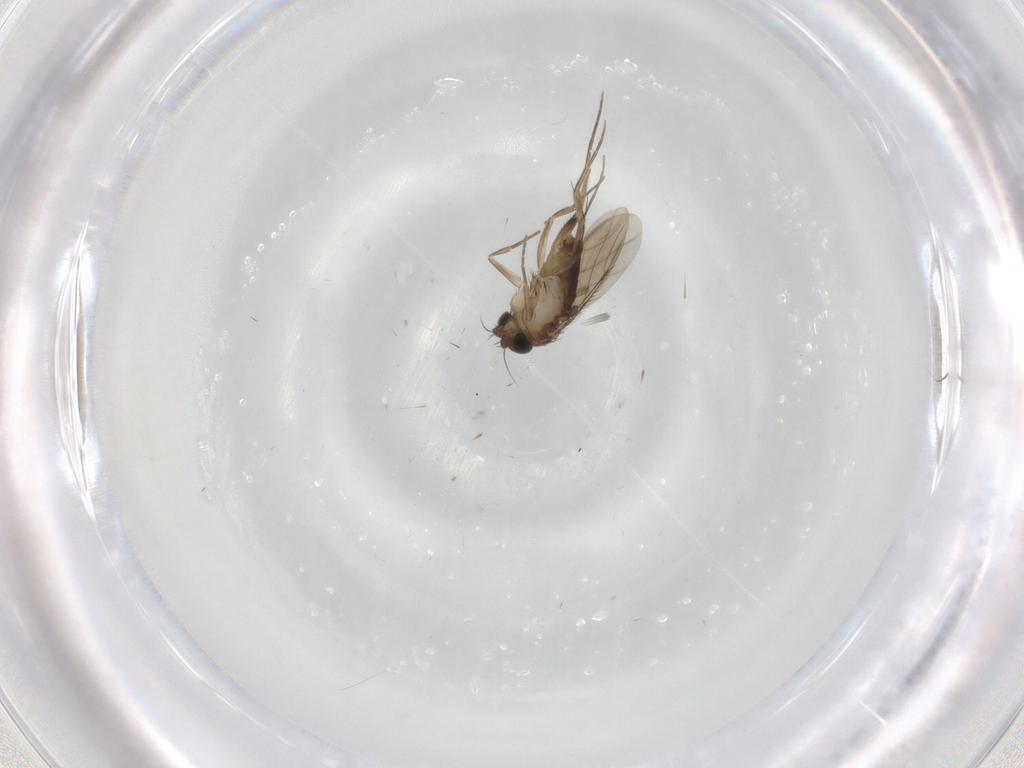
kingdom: Animalia
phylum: Arthropoda
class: Insecta
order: Diptera
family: Phoridae
